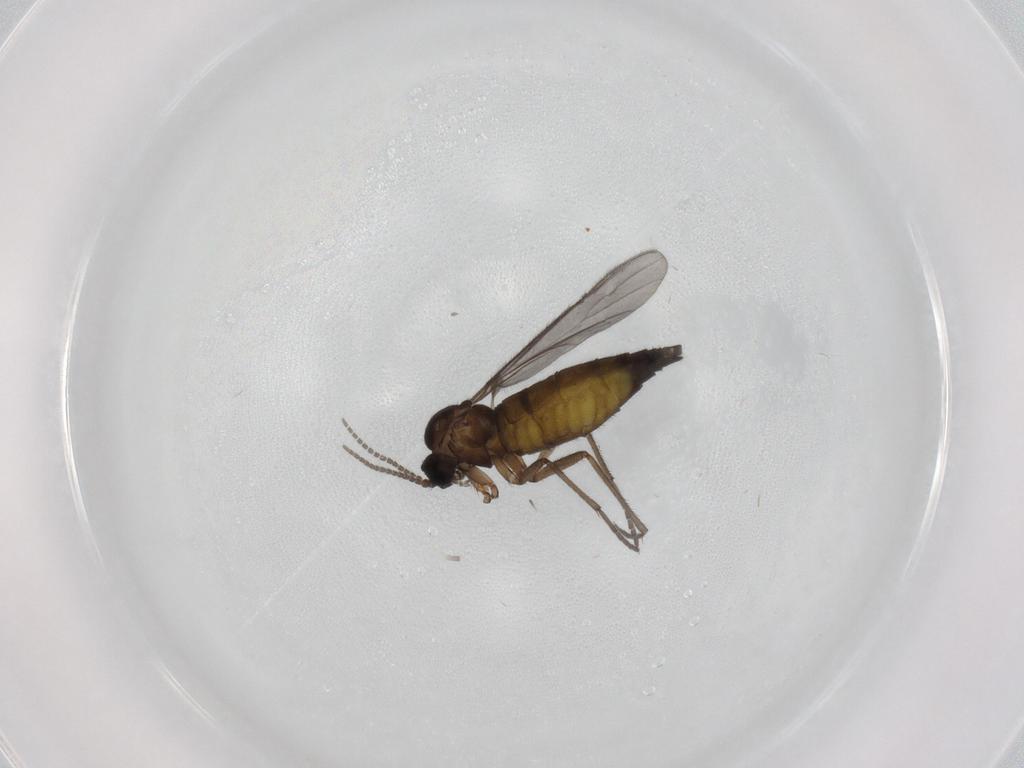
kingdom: Animalia
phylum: Arthropoda
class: Insecta
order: Diptera
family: Sciaridae
